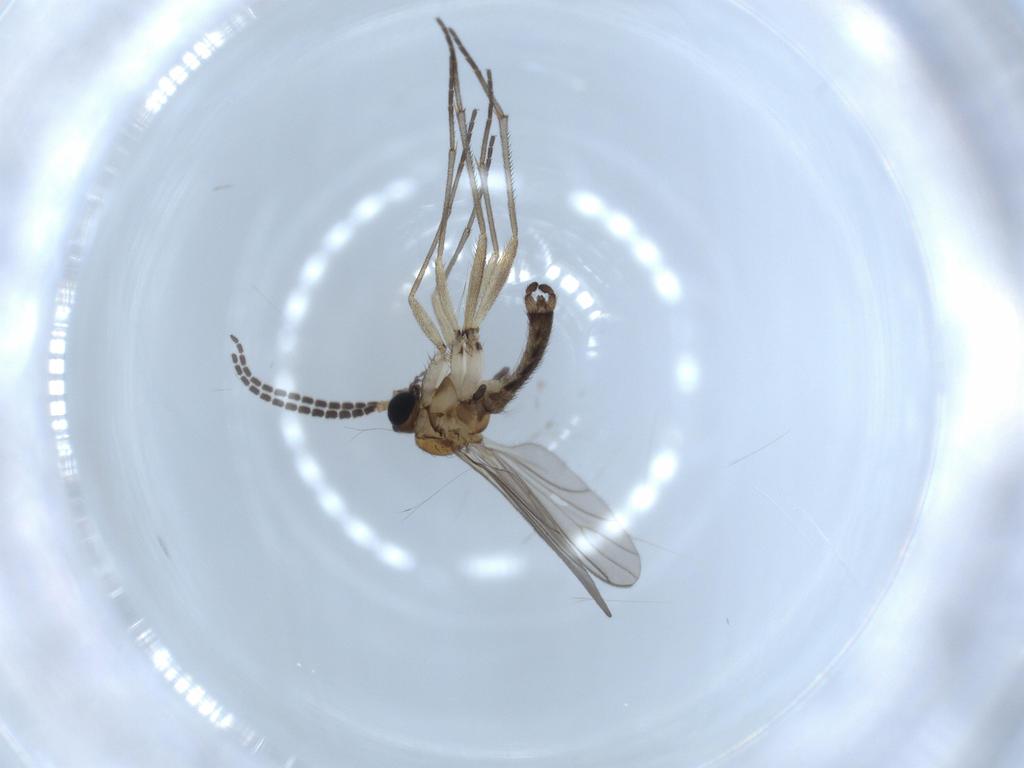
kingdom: Animalia
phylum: Arthropoda
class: Insecta
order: Diptera
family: Sciaridae
